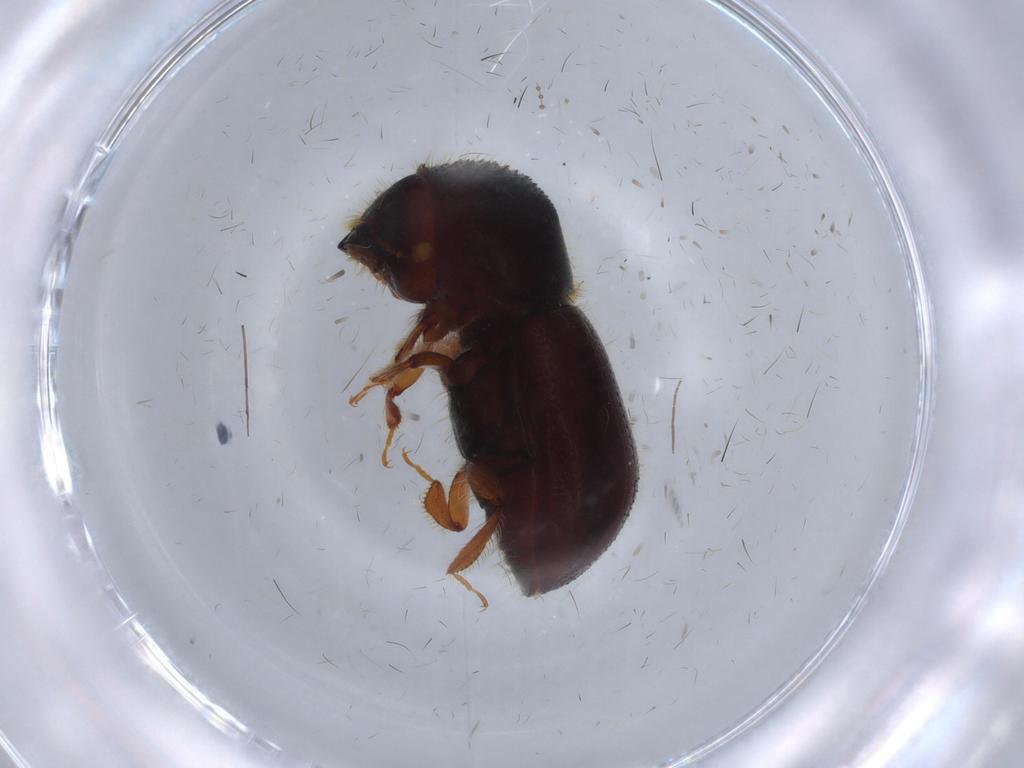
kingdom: Animalia
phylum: Arthropoda
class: Insecta
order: Coleoptera
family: Curculionidae
